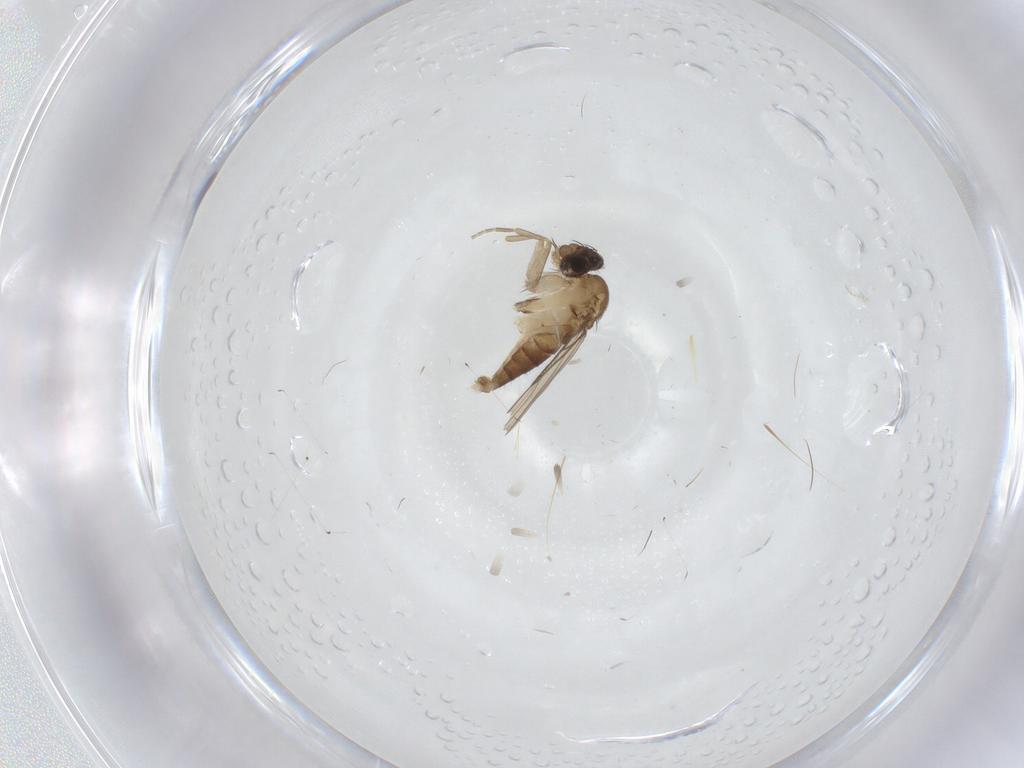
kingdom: Animalia
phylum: Arthropoda
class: Insecta
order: Diptera
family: Phoridae
